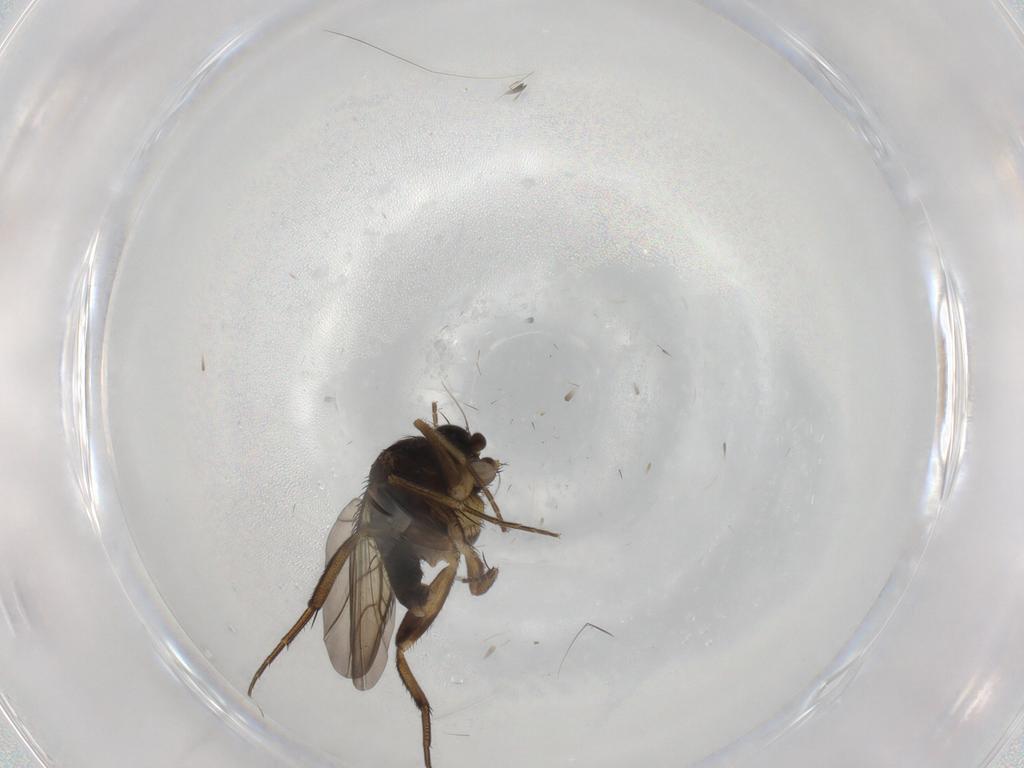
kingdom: Animalia
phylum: Arthropoda
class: Insecta
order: Diptera
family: Phoridae
